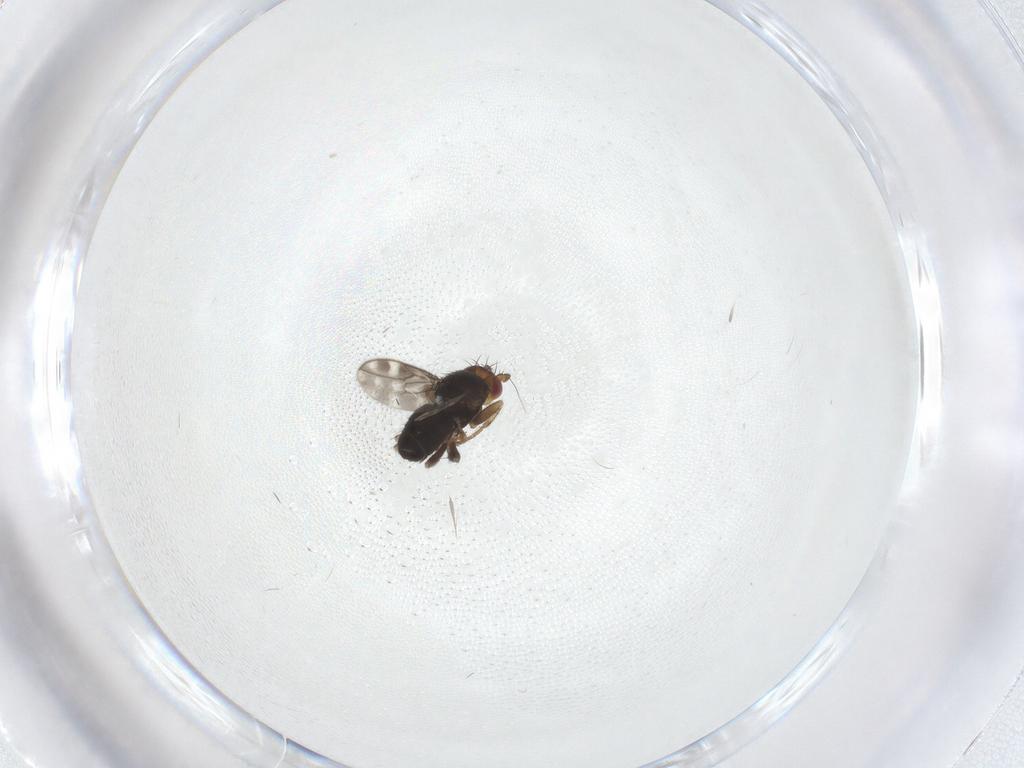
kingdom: Animalia
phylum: Arthropoda
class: Insecta
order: Diptera
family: Sphaeroceridae
